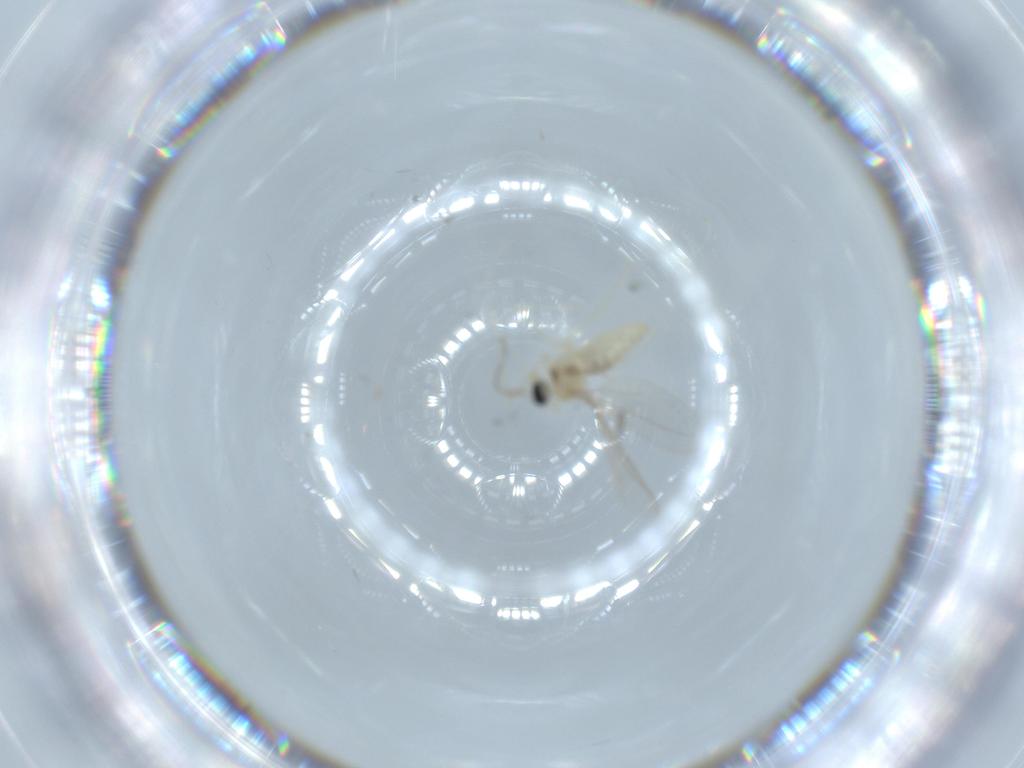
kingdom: Animalia
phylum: Arthropoda
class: Insecta
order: Diptera
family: Cecidomyiidae
